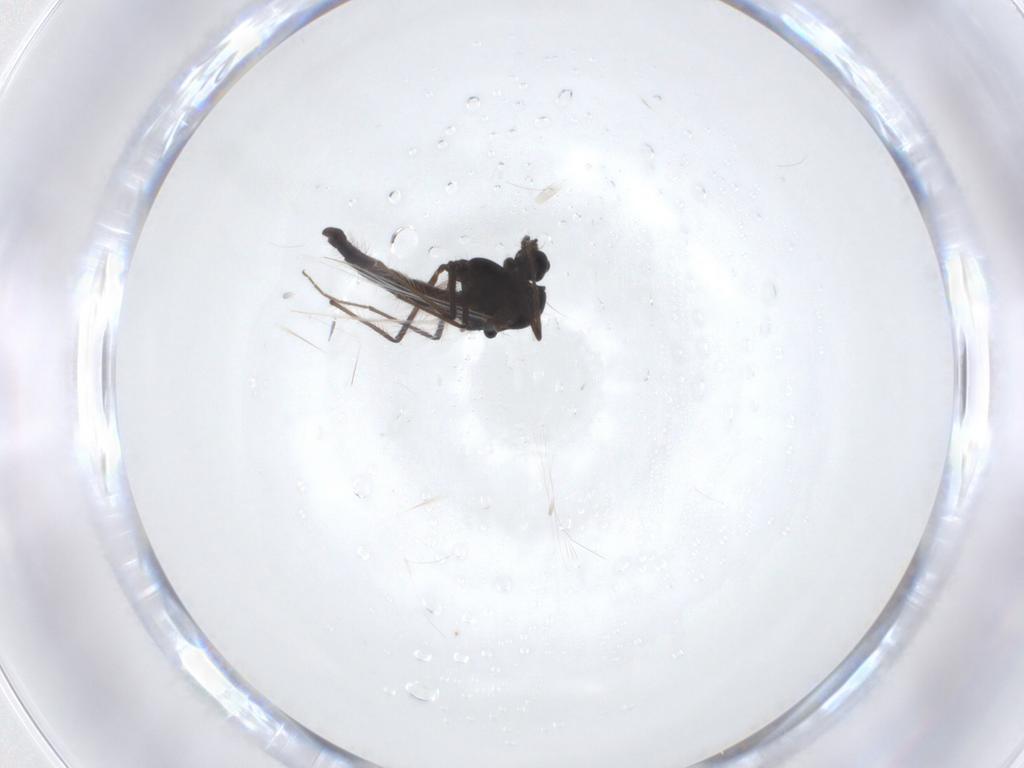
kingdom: Animalia
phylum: Arthropoda
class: Insecta
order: Diptera
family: Chironomidae
